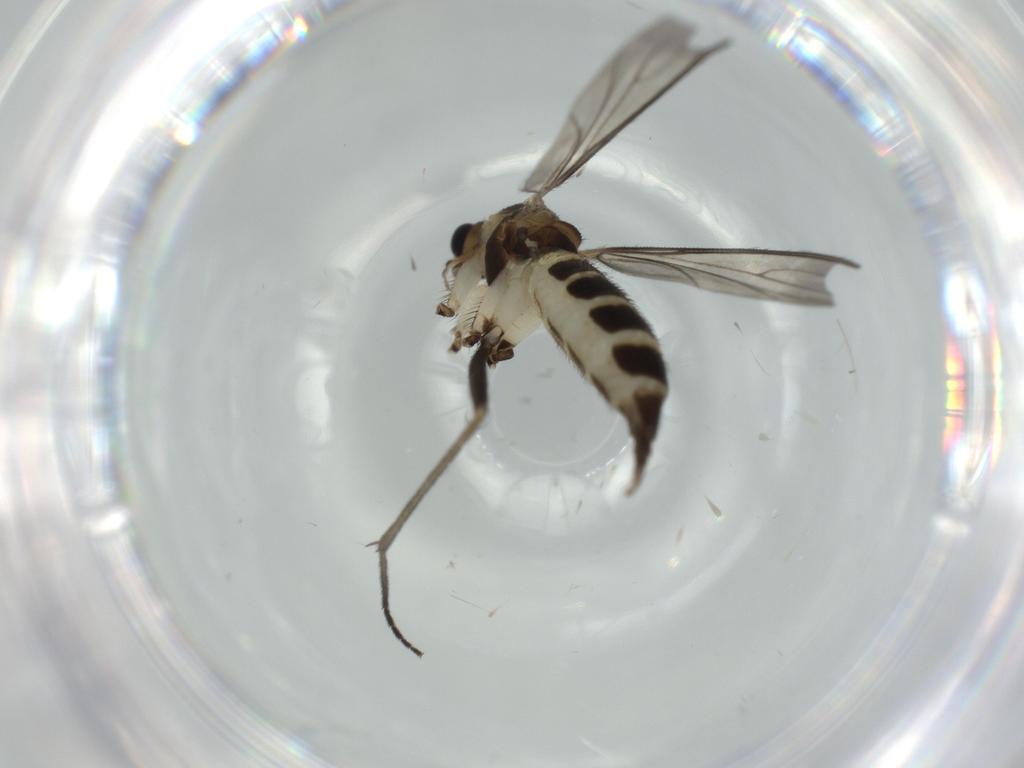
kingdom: Animalia
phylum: Arthropoda
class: Insecta
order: Diptera
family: Sciaridae
